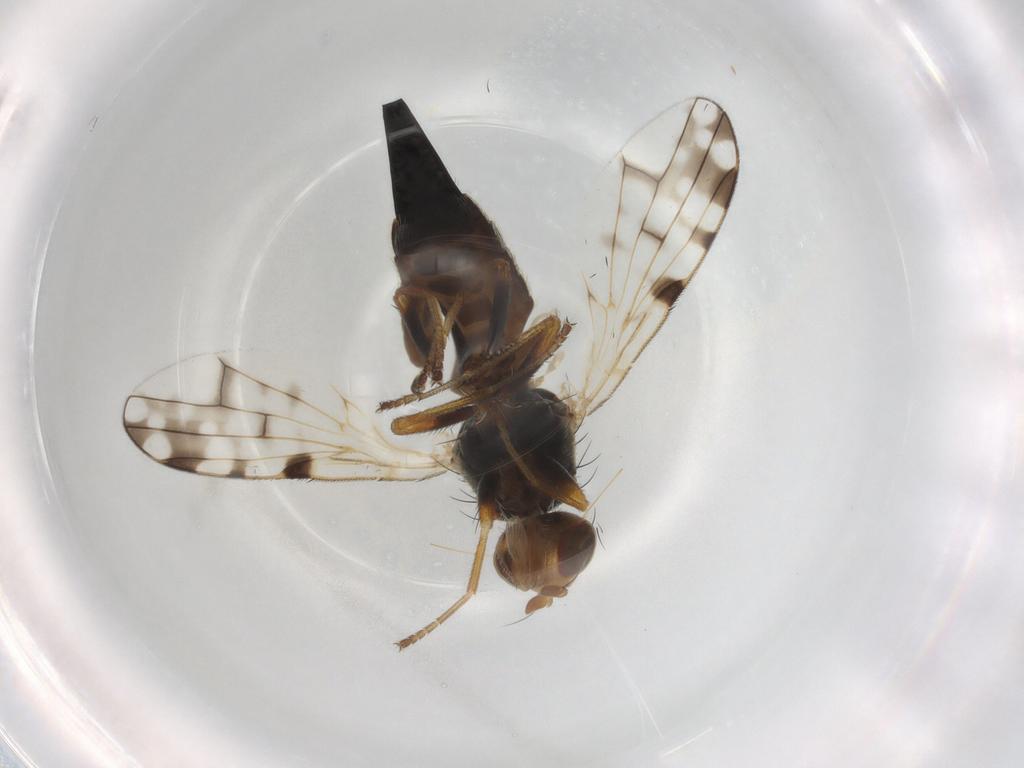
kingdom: Animalia
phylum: Arthropoda
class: Insecta
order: Diptera
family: Tephritidae
